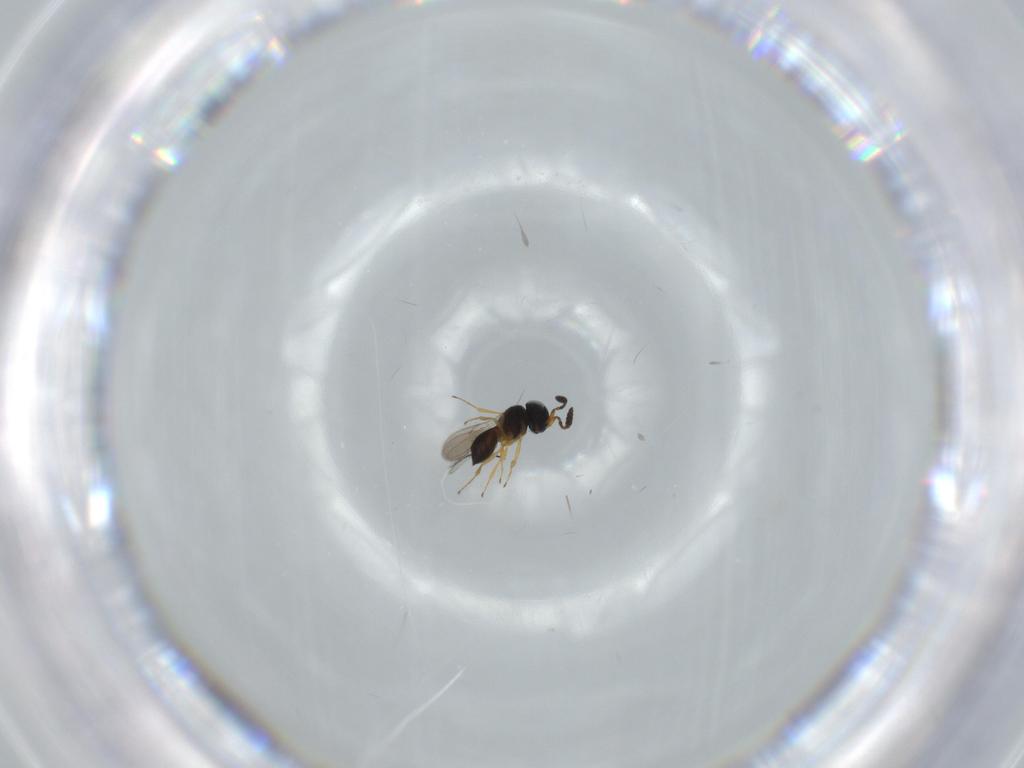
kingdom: Animalia
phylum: Arthropoda
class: Insecta
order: Hymenoptera
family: Scelionidae
